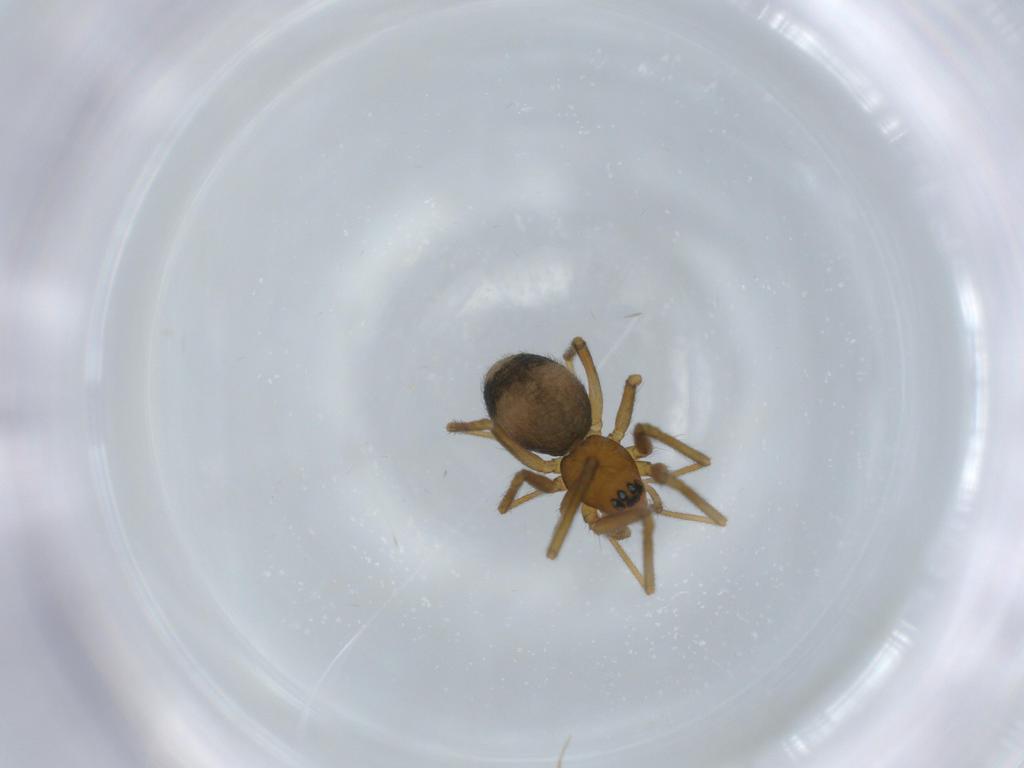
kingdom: Animalia
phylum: Arthropoda
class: Arachnida
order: Araneae
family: Linyphiidae
